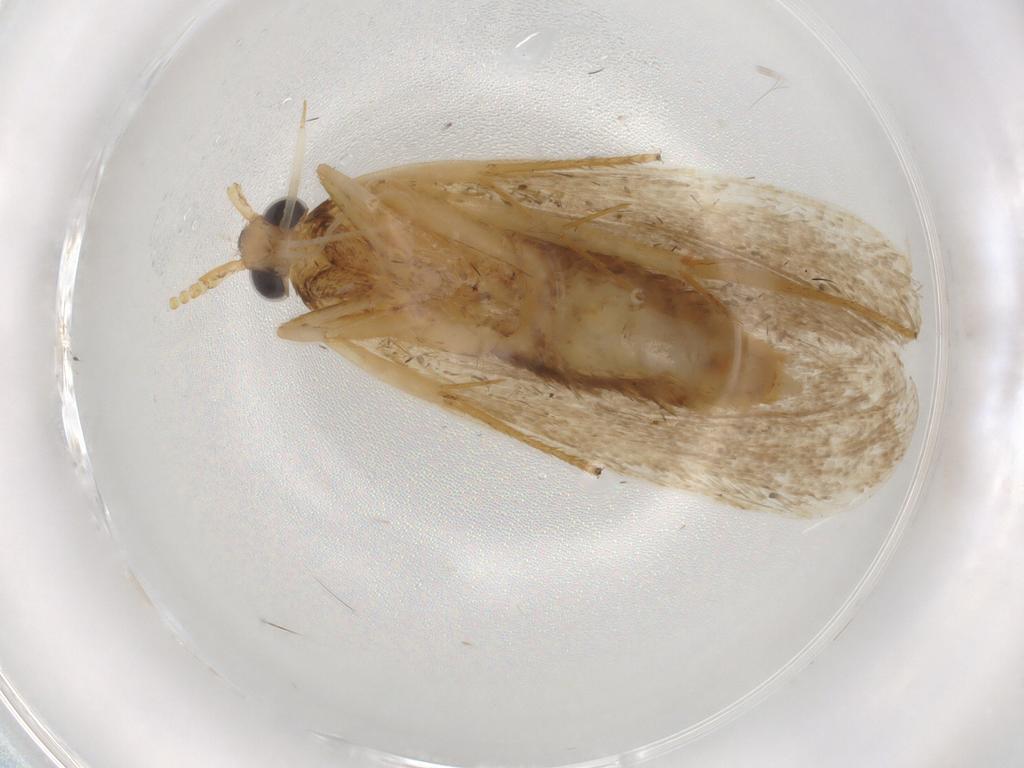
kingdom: Animalia
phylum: Arthropoda
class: Insecta
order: Lepidoptera
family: Lecithoceridae
